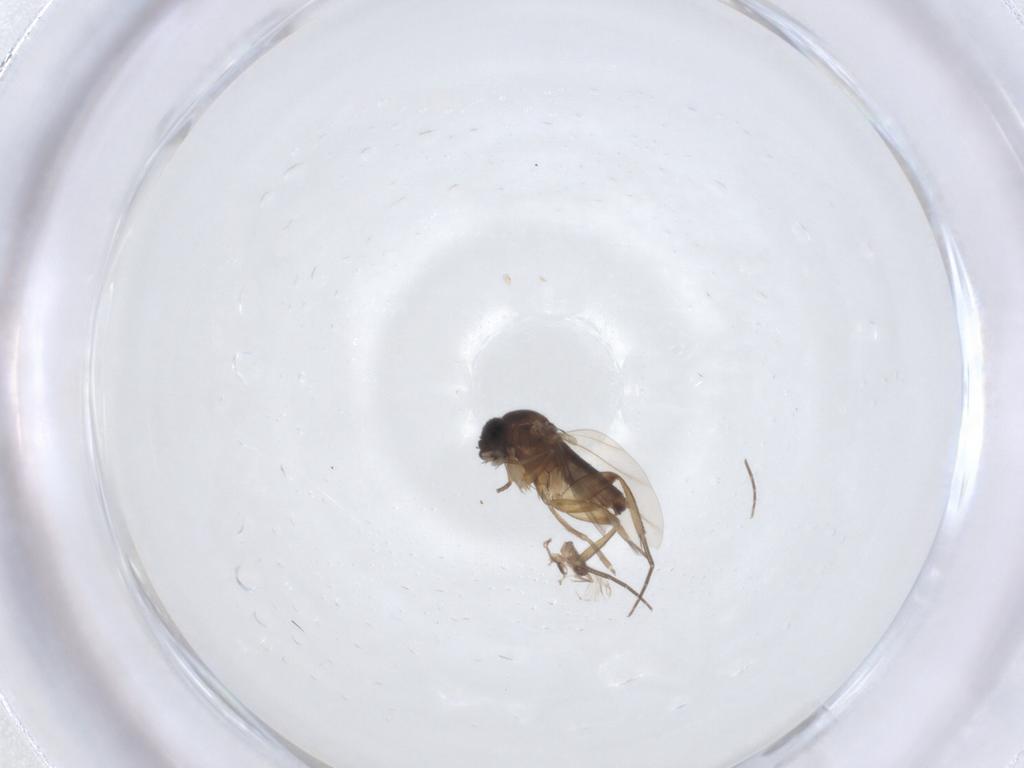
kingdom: Animalia
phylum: Arthropoda
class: Insecta
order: Diptera
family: Phoridae
